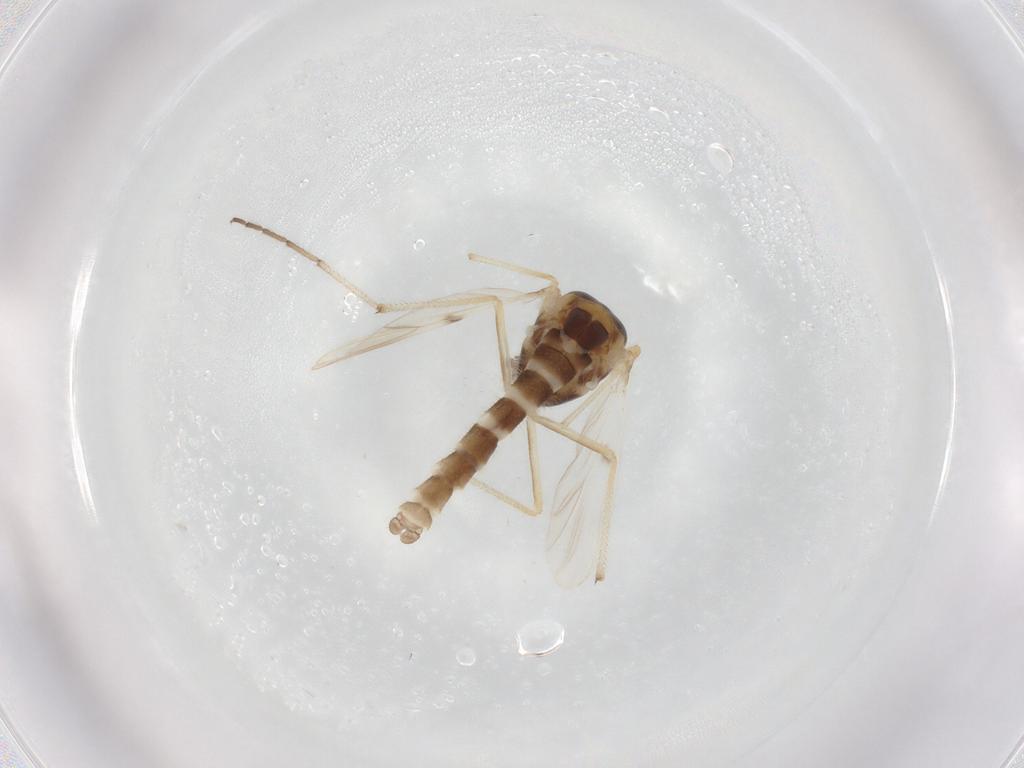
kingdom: Animalia
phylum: Arthropoda
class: Insecta
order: Diptera
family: Chironomidae
